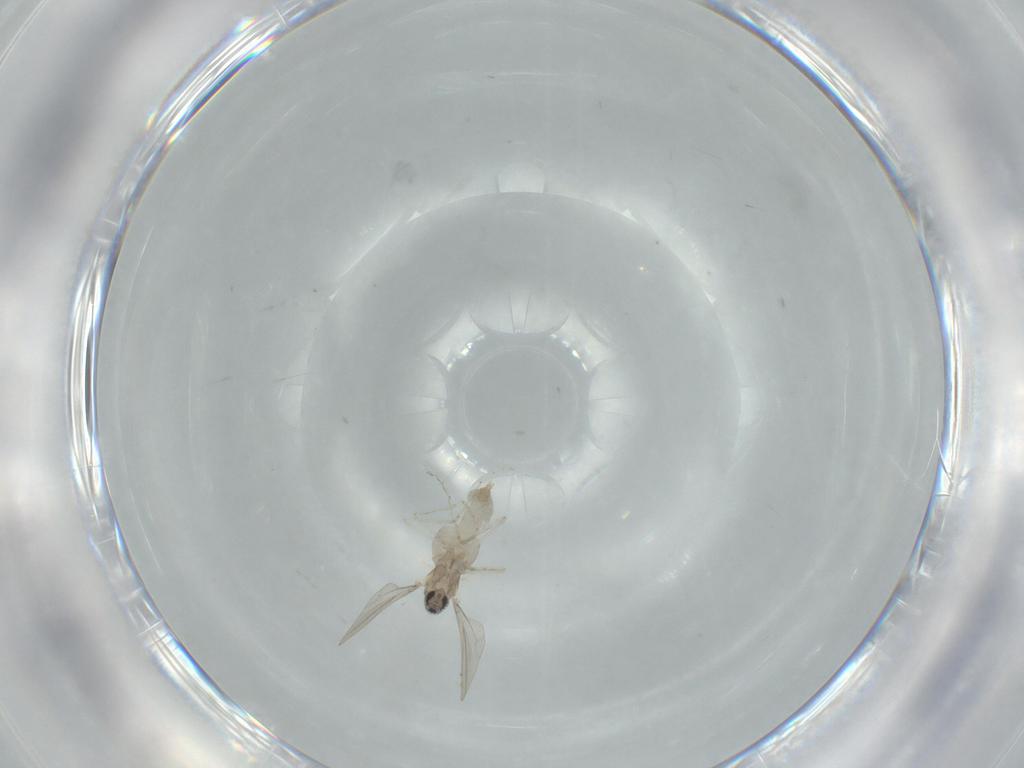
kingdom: Animalia
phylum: Arthropoda
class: Insecta
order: Diptera
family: Cecidomyiidae
